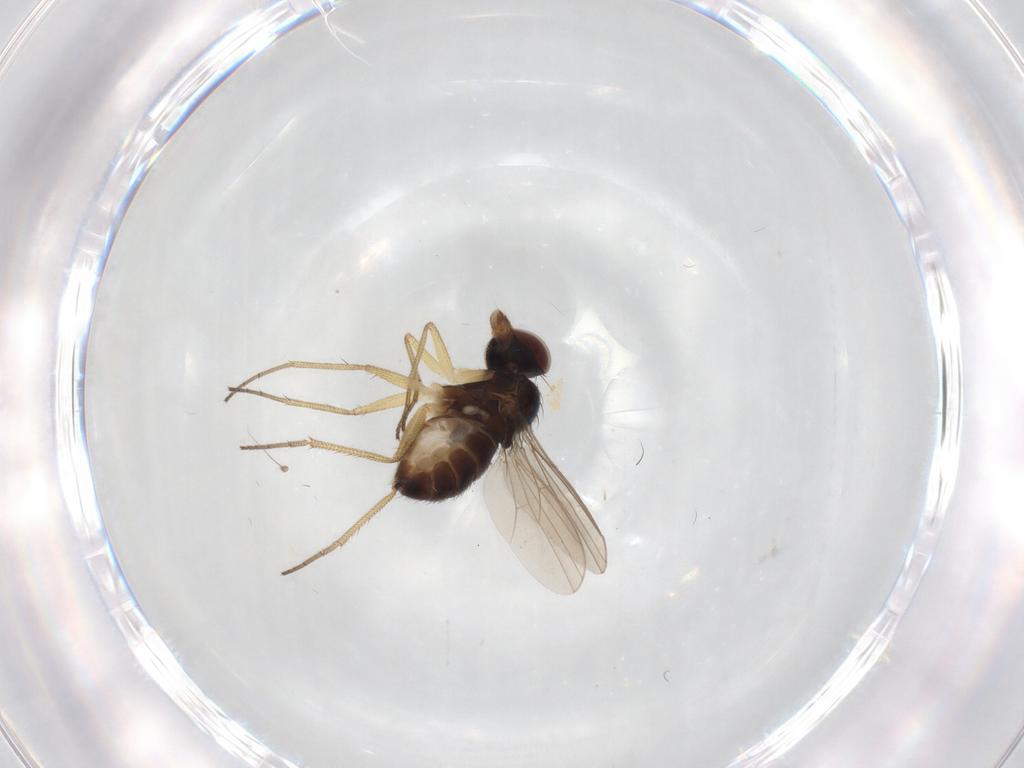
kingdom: Animalia
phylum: Arthropoda
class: Insecta
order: Diptera
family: Dolichopodidae
